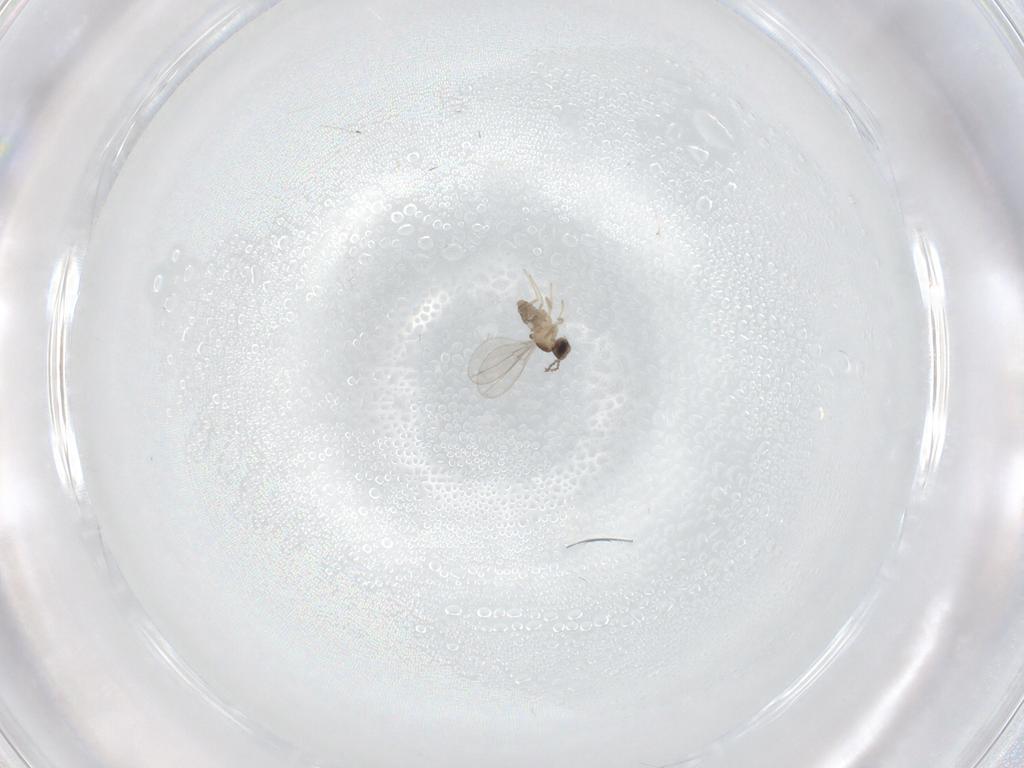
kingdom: Animalia
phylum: Arthropoda
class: Insecta
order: Diptera
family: Cecidomyiidae
